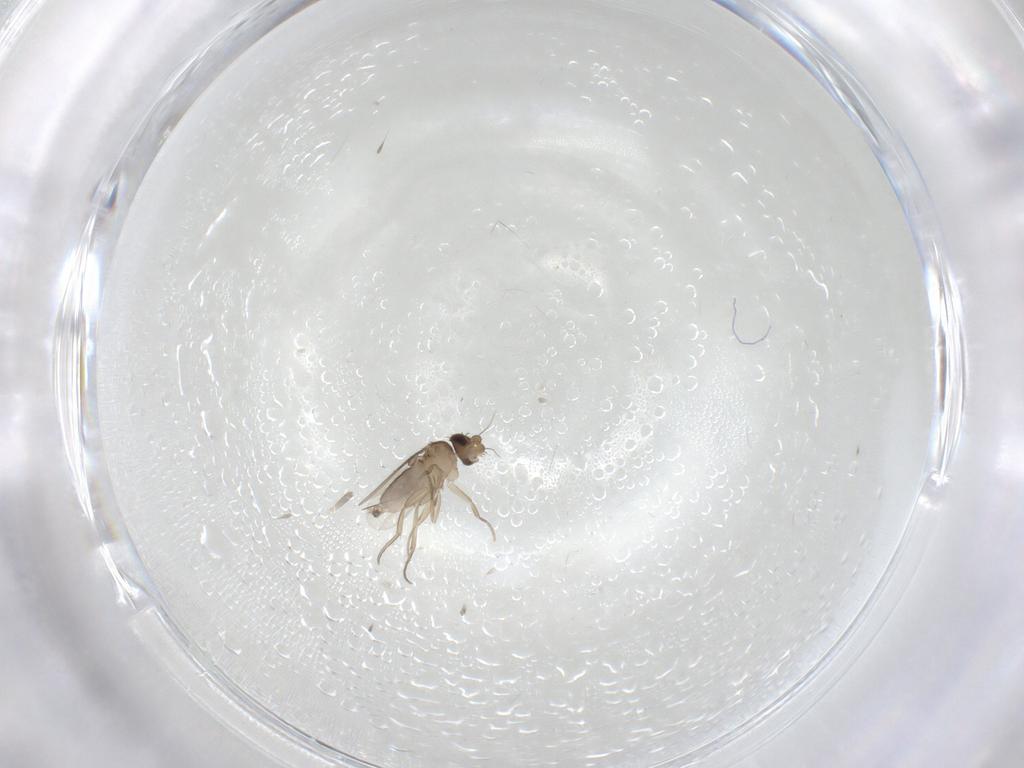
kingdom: Animalia
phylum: Arthropoda
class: Insecta
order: Diptera
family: Phoridae
